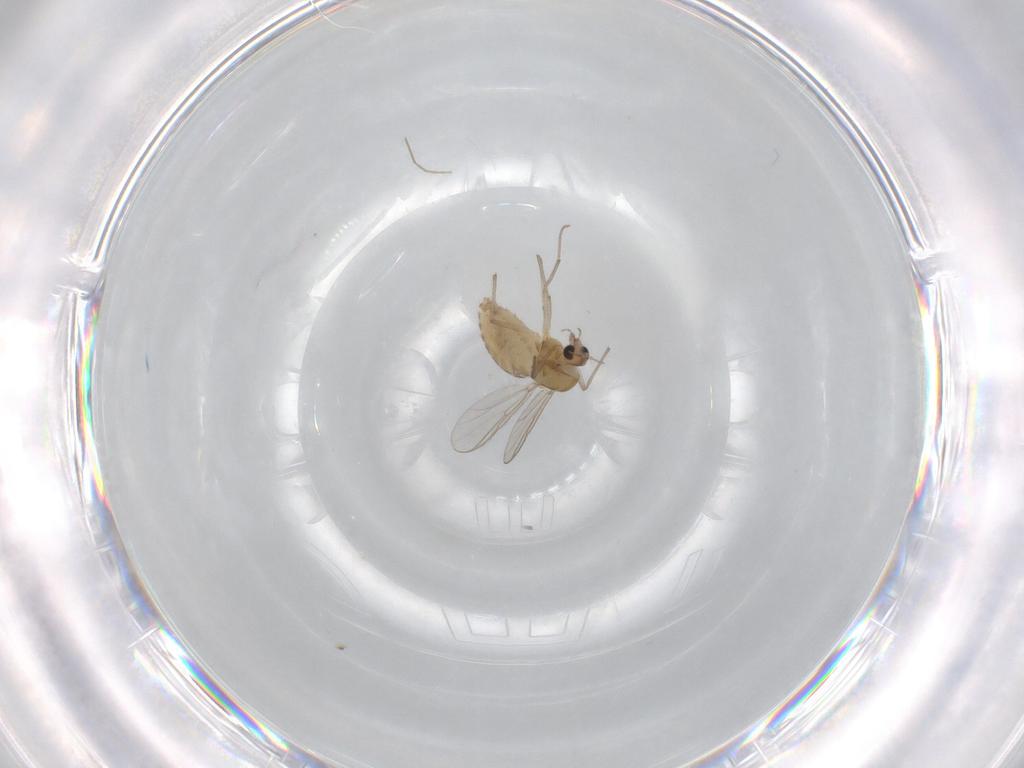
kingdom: Animalia
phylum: Arthropoda
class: Insecta
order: Diptera
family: Chironomidae
